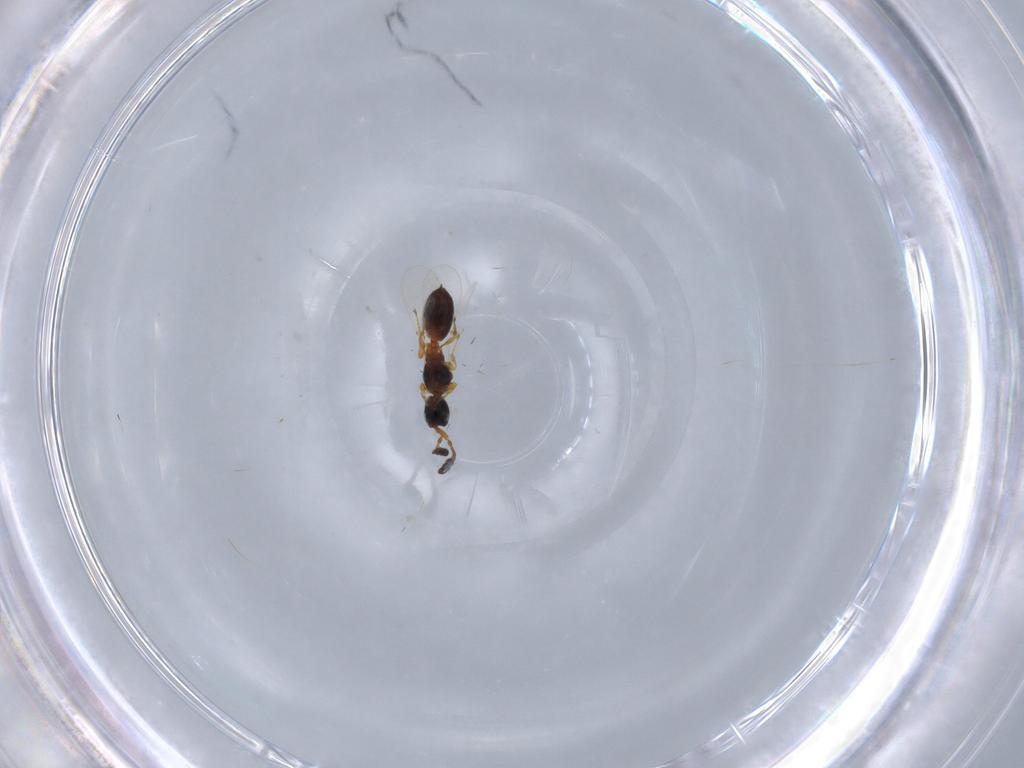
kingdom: Animalia
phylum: Arthropoda
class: Insecta
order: Hymenoptera
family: Diapriidae
